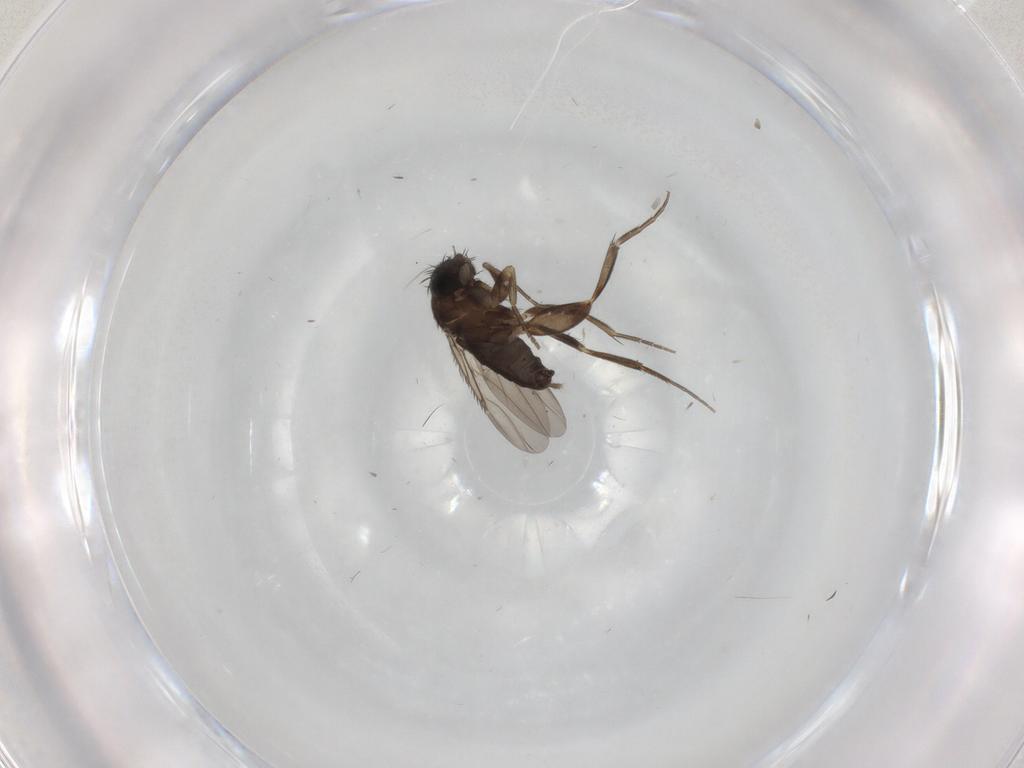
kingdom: Animalia
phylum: Arthropoda
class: Insecta
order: Diptera
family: Phoridae
